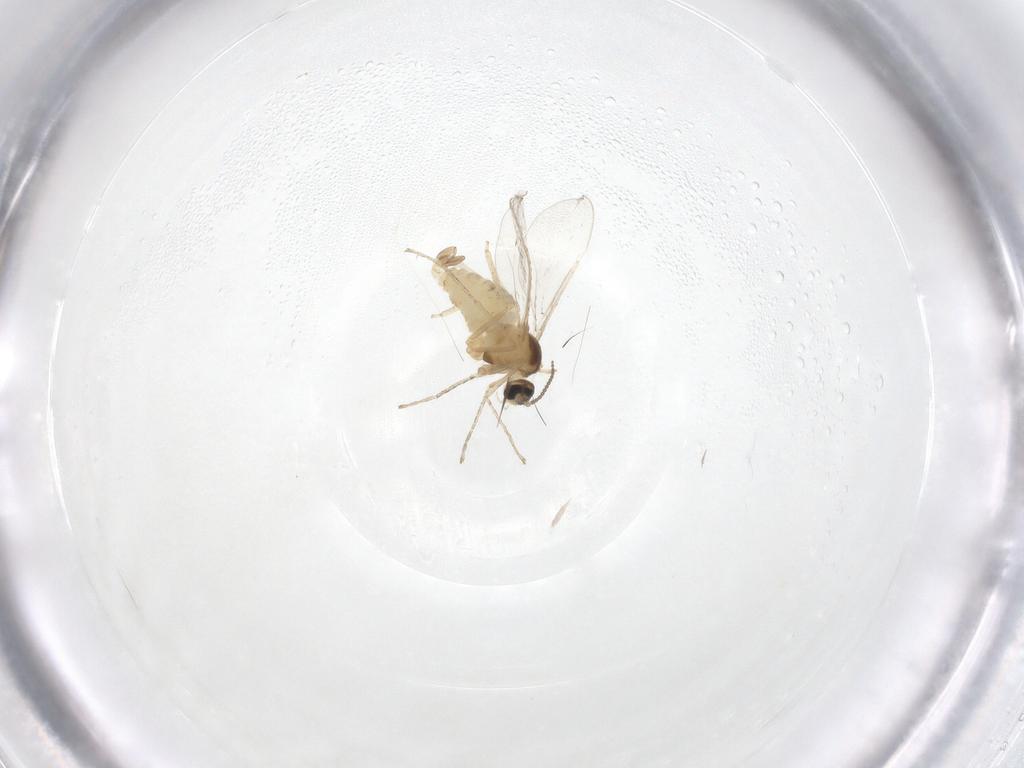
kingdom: Animalia
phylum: Arthropoda
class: Insecta
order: Diptera
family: Cecidomyiidae
